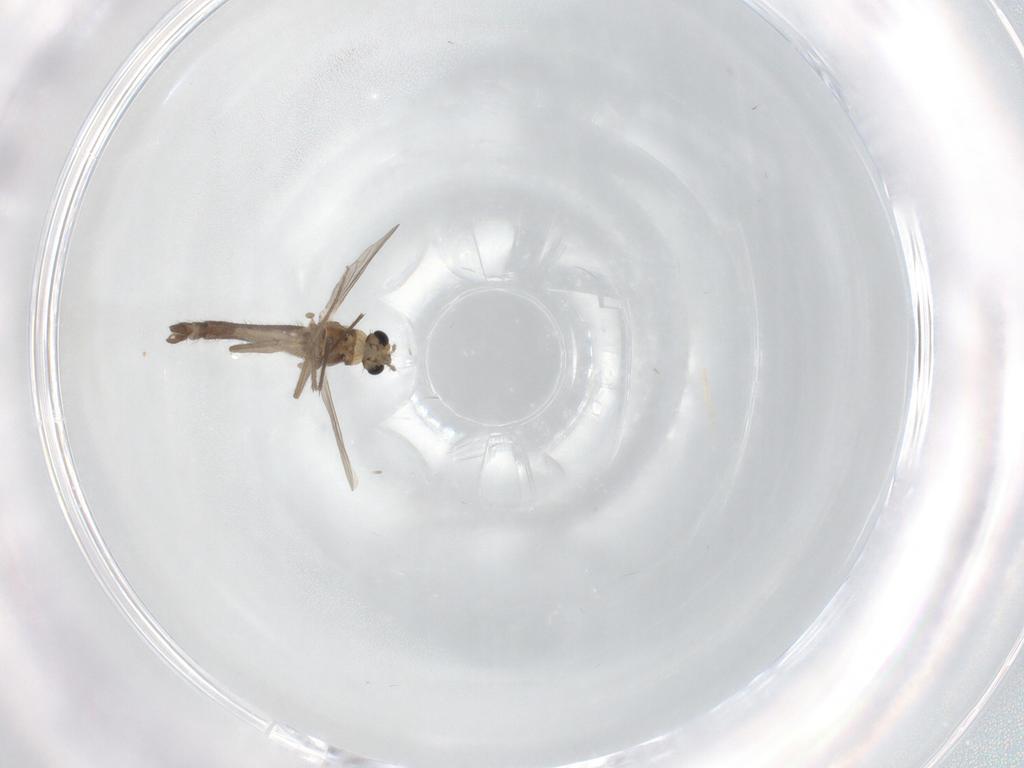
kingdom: Animalia
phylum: Arthropoda
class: Insecta
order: Diptera
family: Chironomidae
